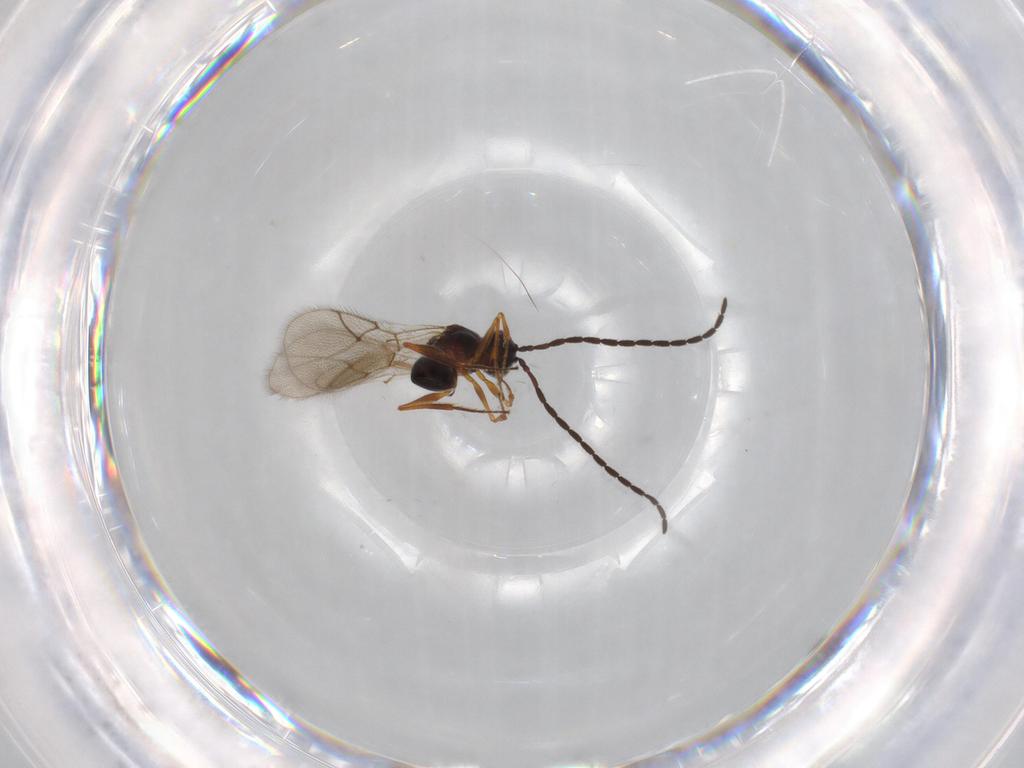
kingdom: Animalia
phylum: Arthropoda
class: Insecta
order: Hymenoptera
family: Figitidae
